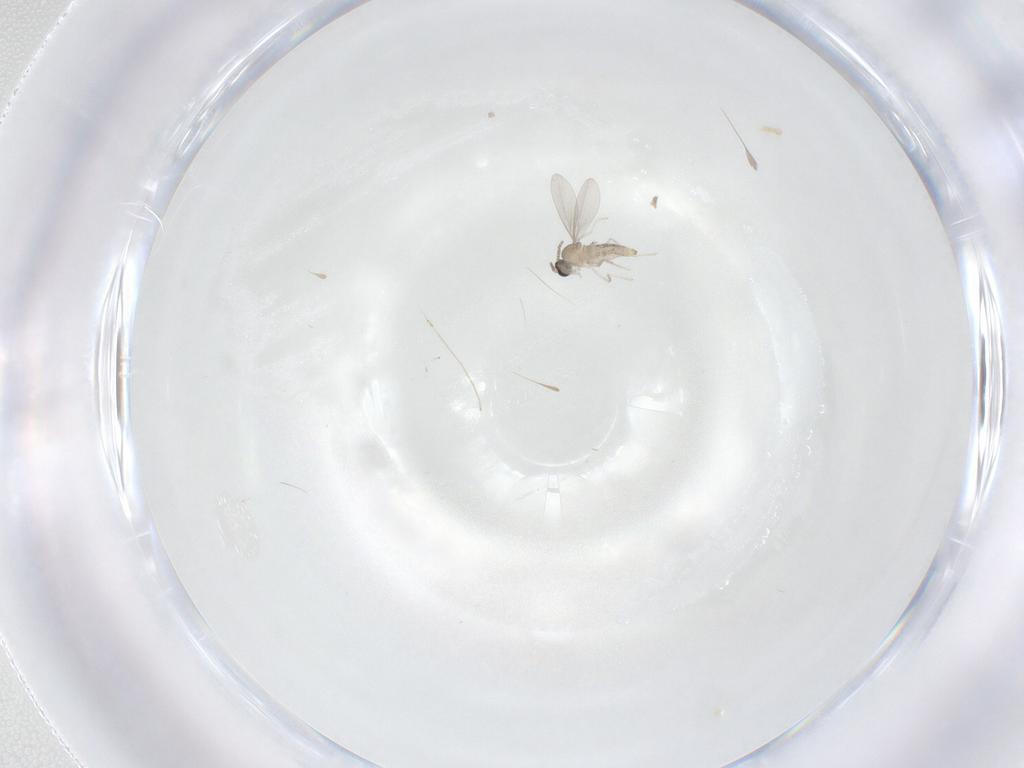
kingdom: Animalia
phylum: Arthropoda
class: Insecta
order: Diptera
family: Cecidomyiidae
